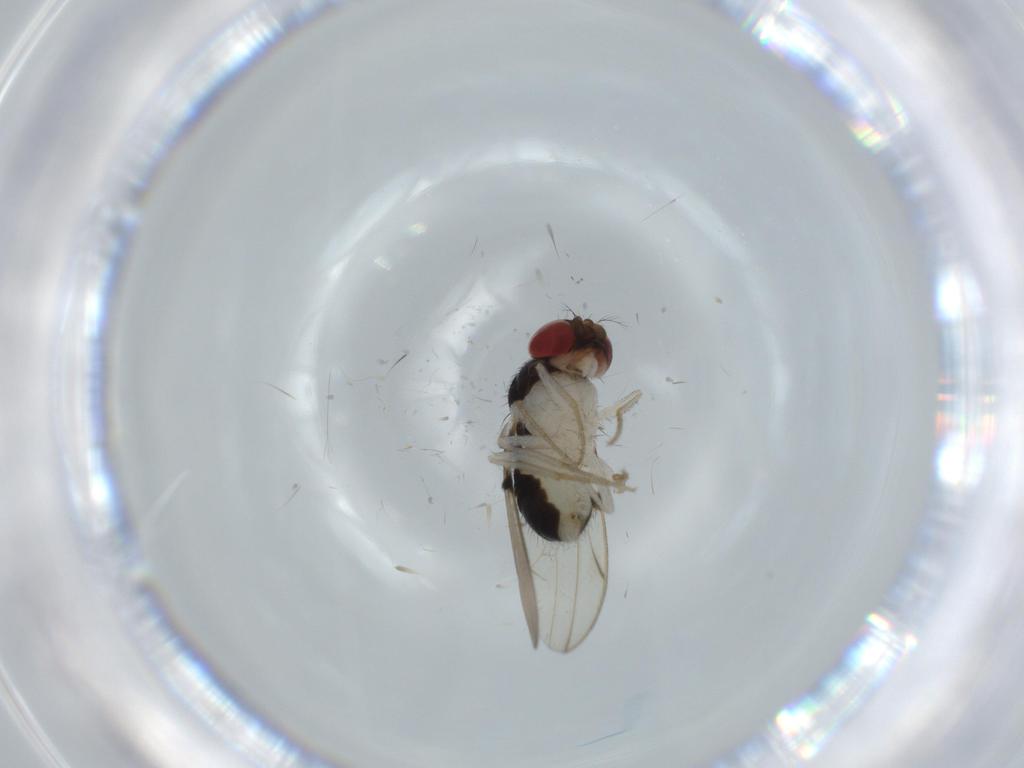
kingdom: Animalia
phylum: Arthropoda
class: Insecta
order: Diptera
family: Drosophilidae
